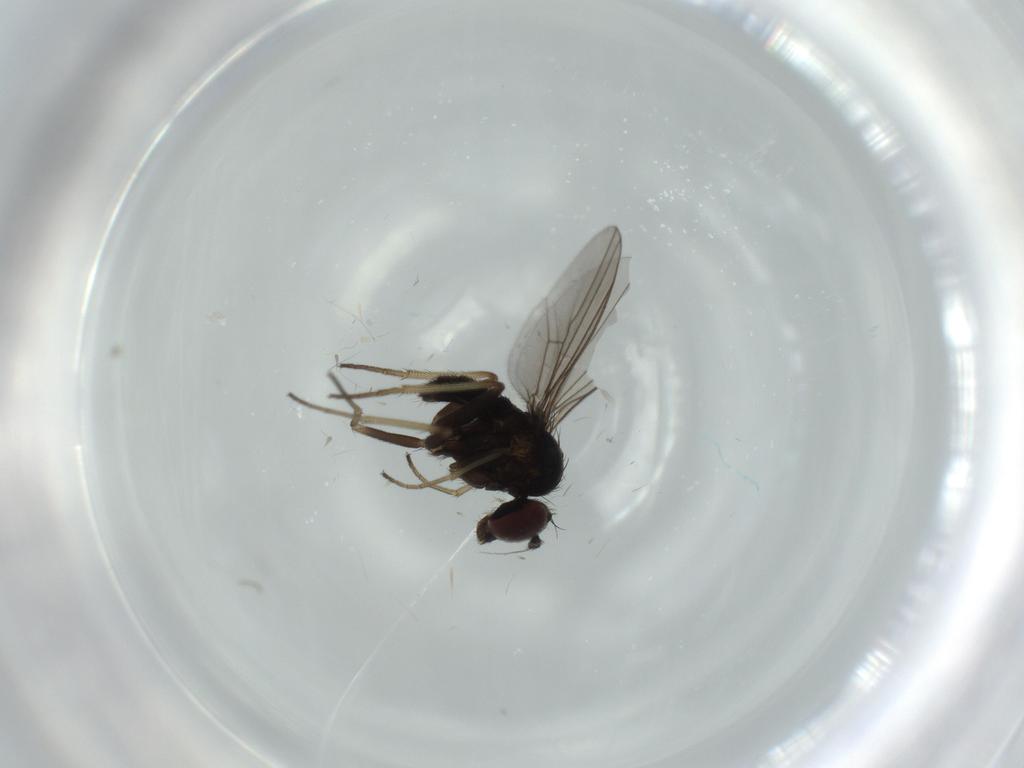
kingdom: Animalia
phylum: Arthropoda
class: Insecta
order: Diptera
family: Dolichopodidae
